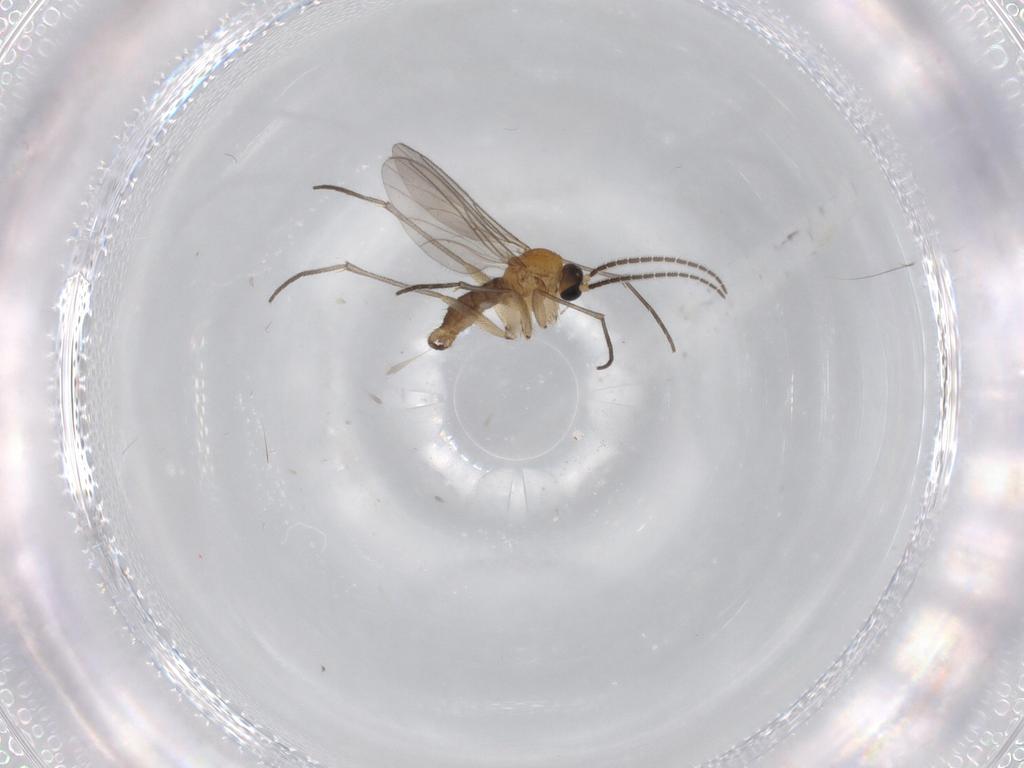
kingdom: Animalia
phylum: Arthropoda
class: Insecta
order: Diptera
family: Sciaridae
